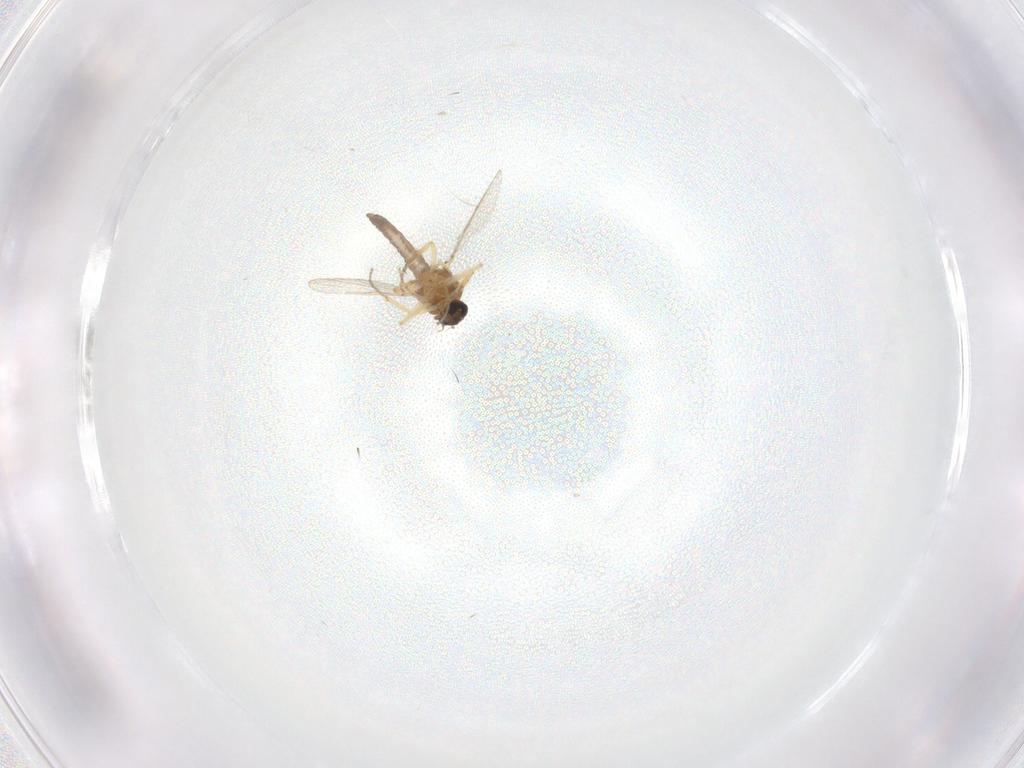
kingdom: Animalia
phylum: Arthropoda
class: Insecta
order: Diptera
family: Ceratopogonidae
